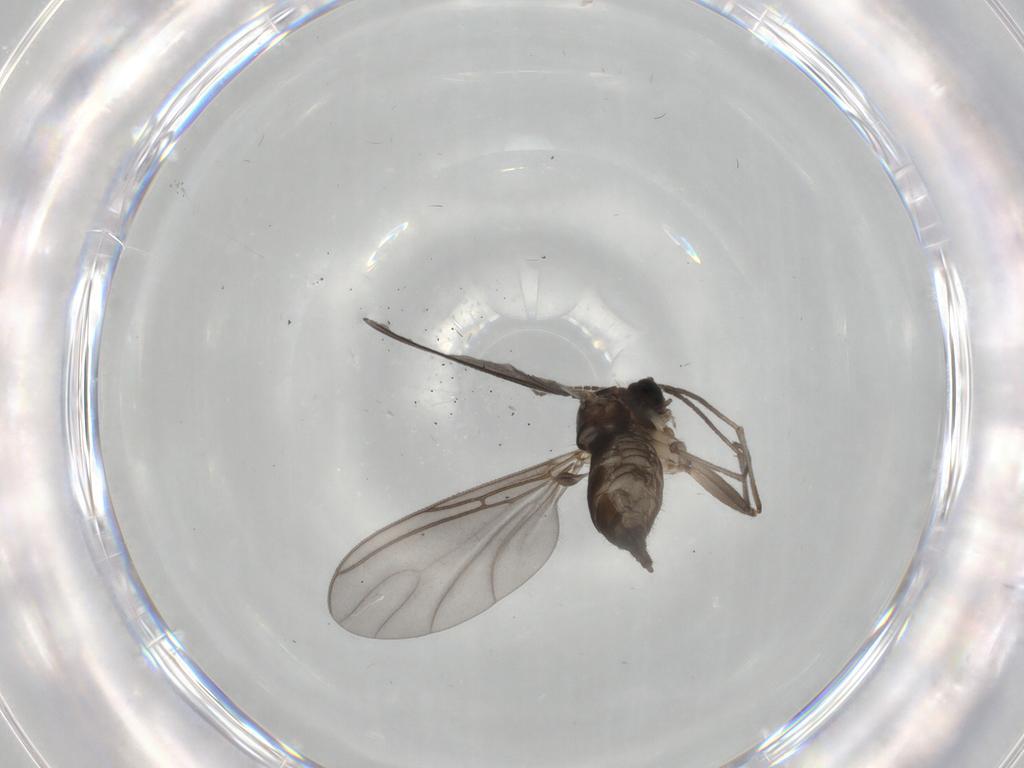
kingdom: Animalia
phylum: Arthropoda
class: Insecta
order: Diptera
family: Sciaridae
